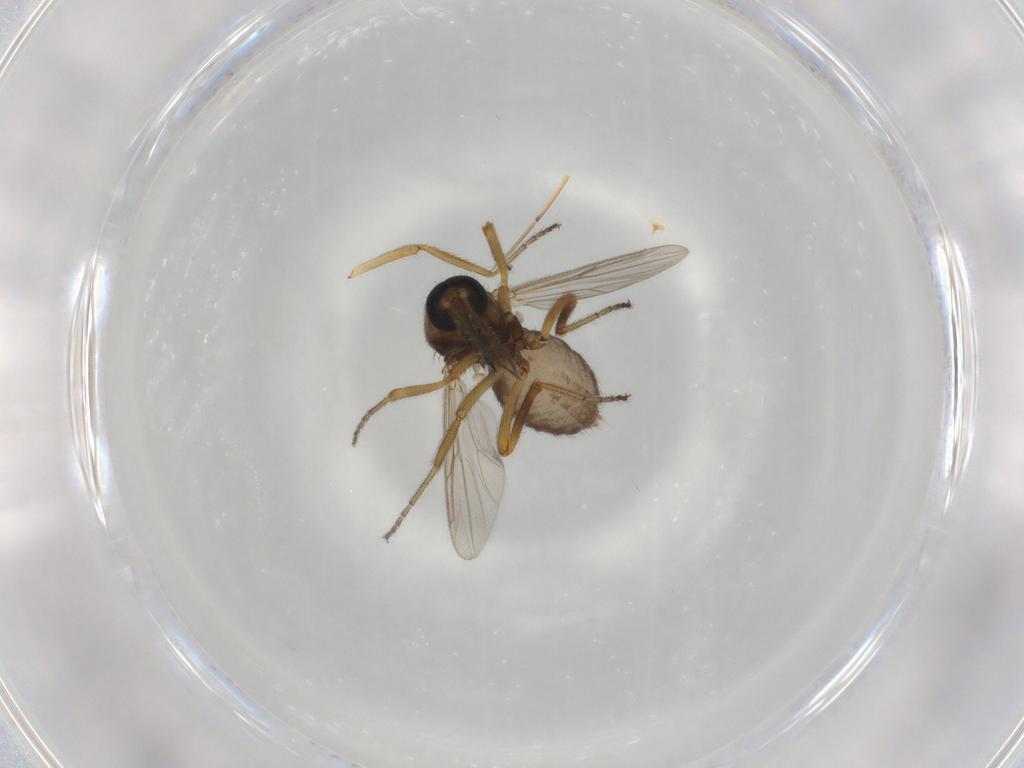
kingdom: Animalia
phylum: Arthropoda
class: Insecta
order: Diptera
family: Ceratopogonidae
